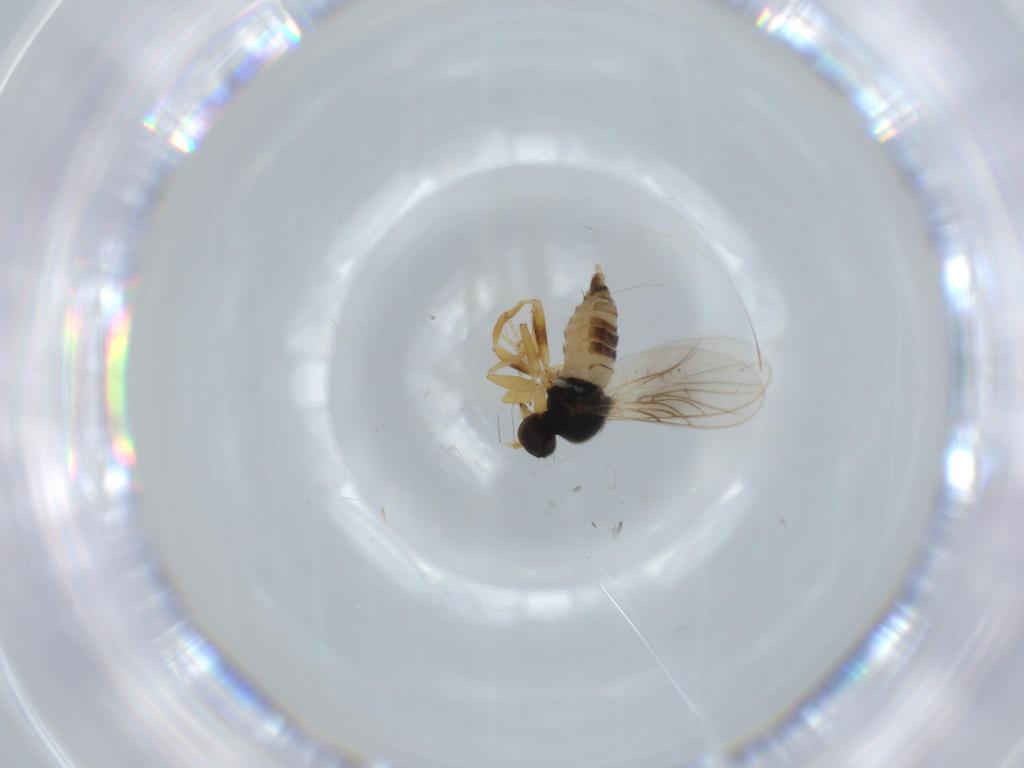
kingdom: Animalia
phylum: Arthropoda
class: Insecta
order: Diptera
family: Hybotidae
